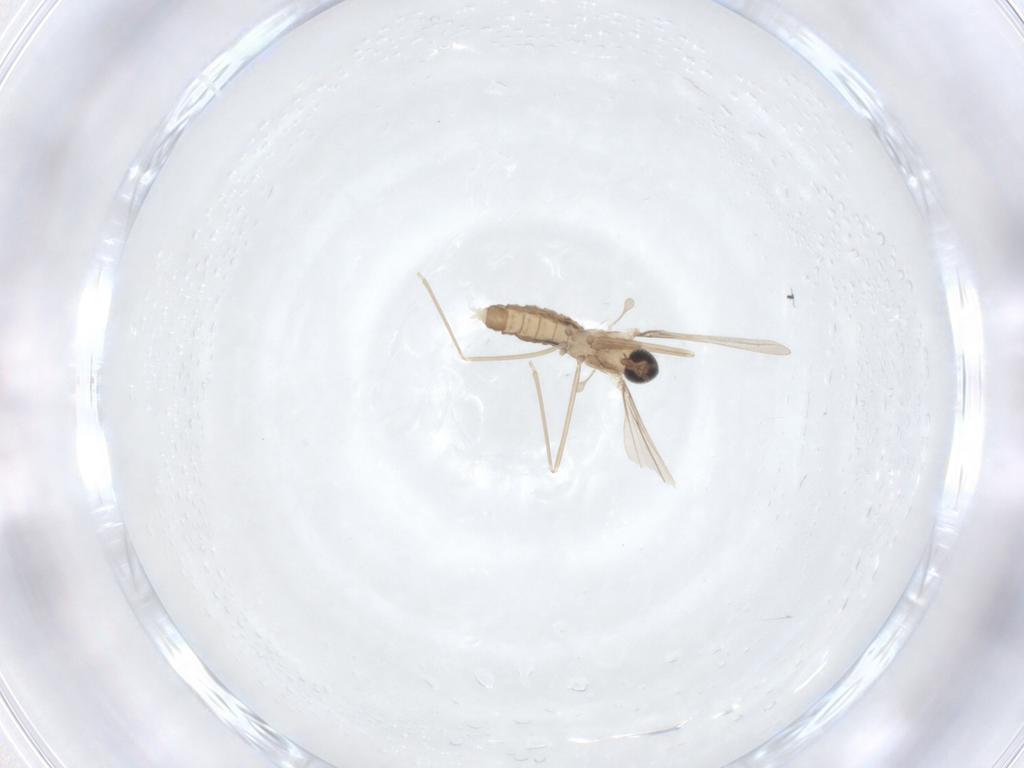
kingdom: Animalia
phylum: Arthropoda
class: Insecta
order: Diptera
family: Cecidomyiidae
